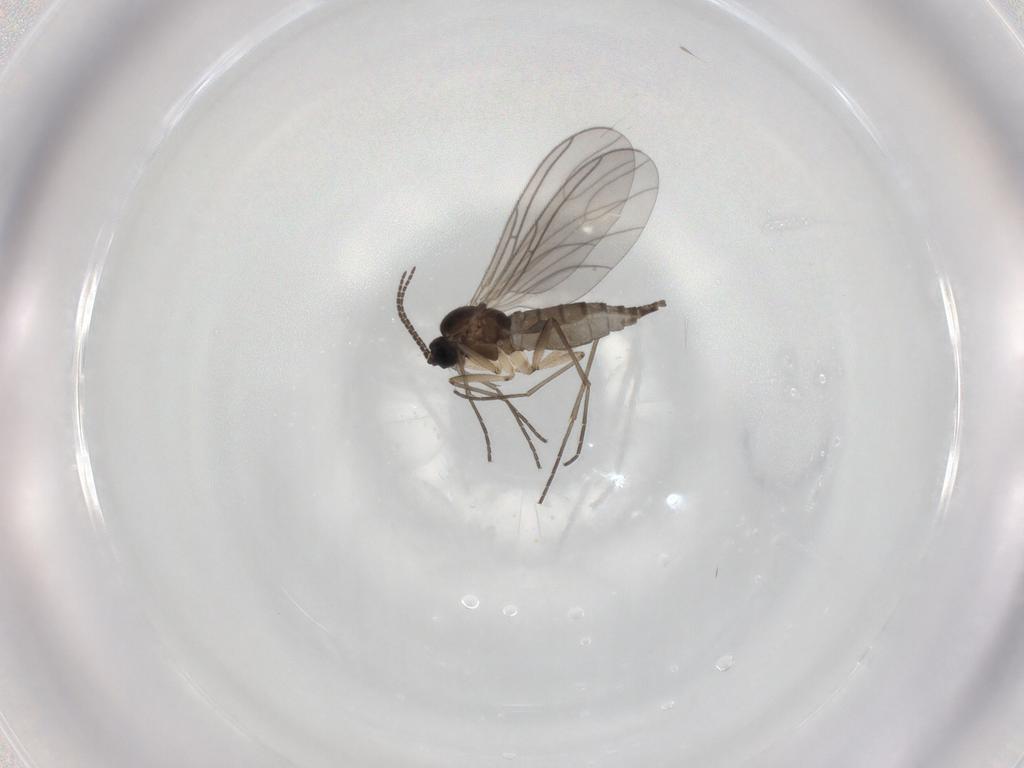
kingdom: Animalia
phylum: Arthropoda
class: Insecta
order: Diptera
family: Sciaridae
